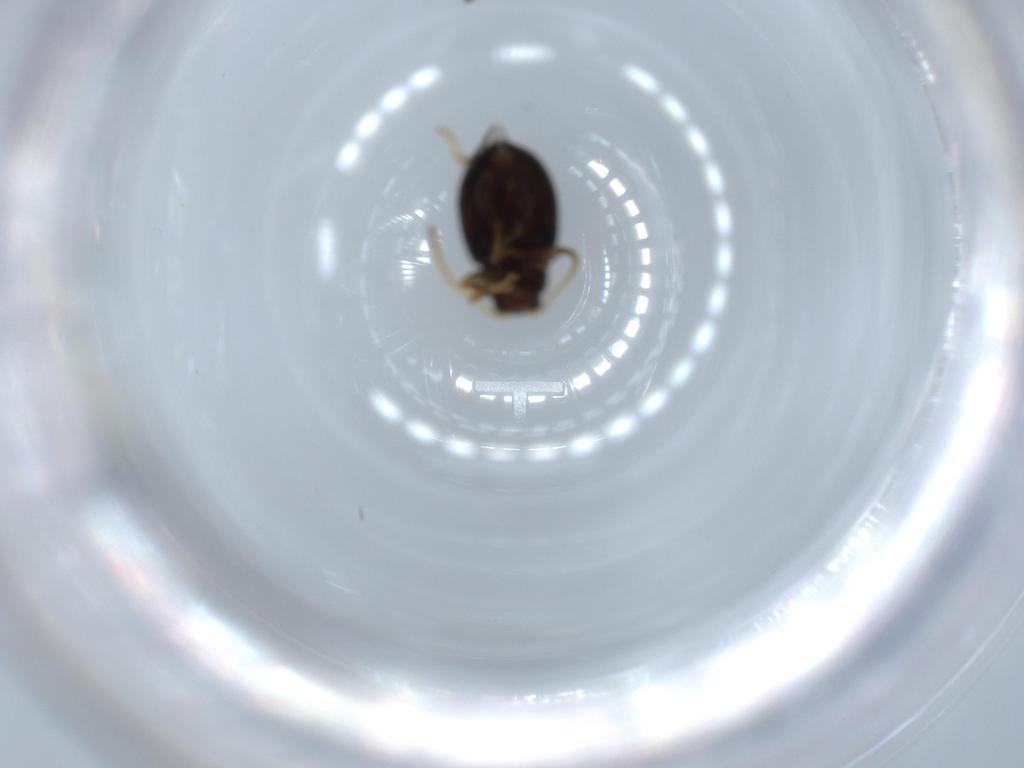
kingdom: Animalia
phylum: Arthropoda
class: Insecta
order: Coleoptera
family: Chrysomelidae
